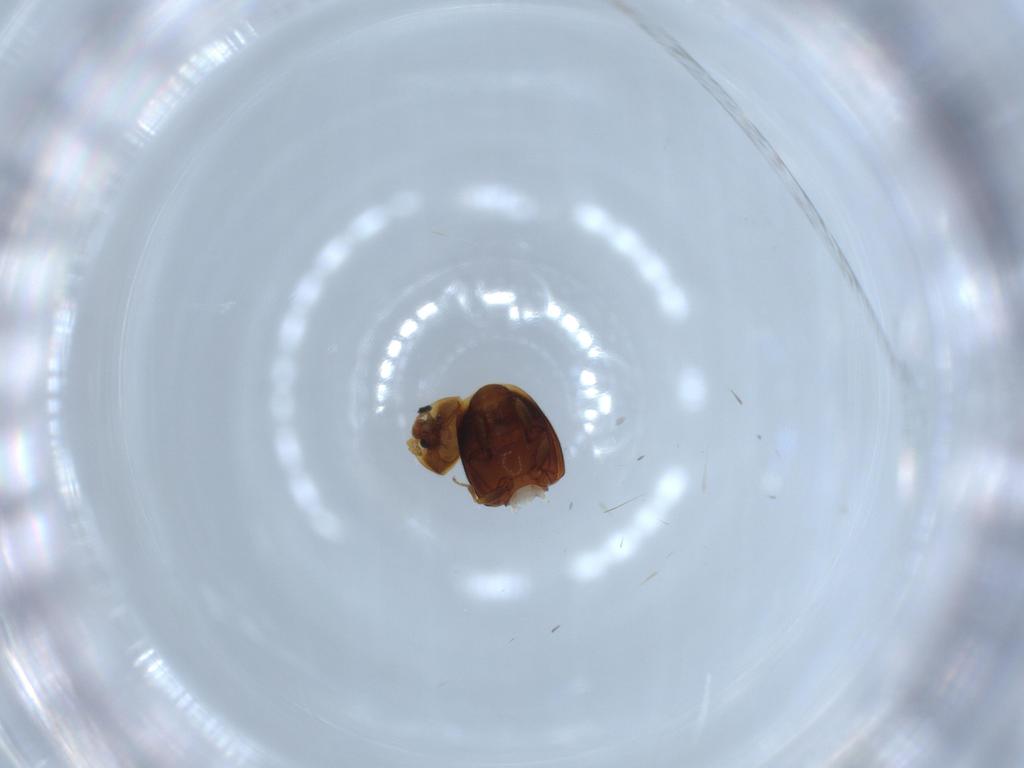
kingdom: Animalia
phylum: Arthropoda
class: Insecta
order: Coleoptera
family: Corylophidae
